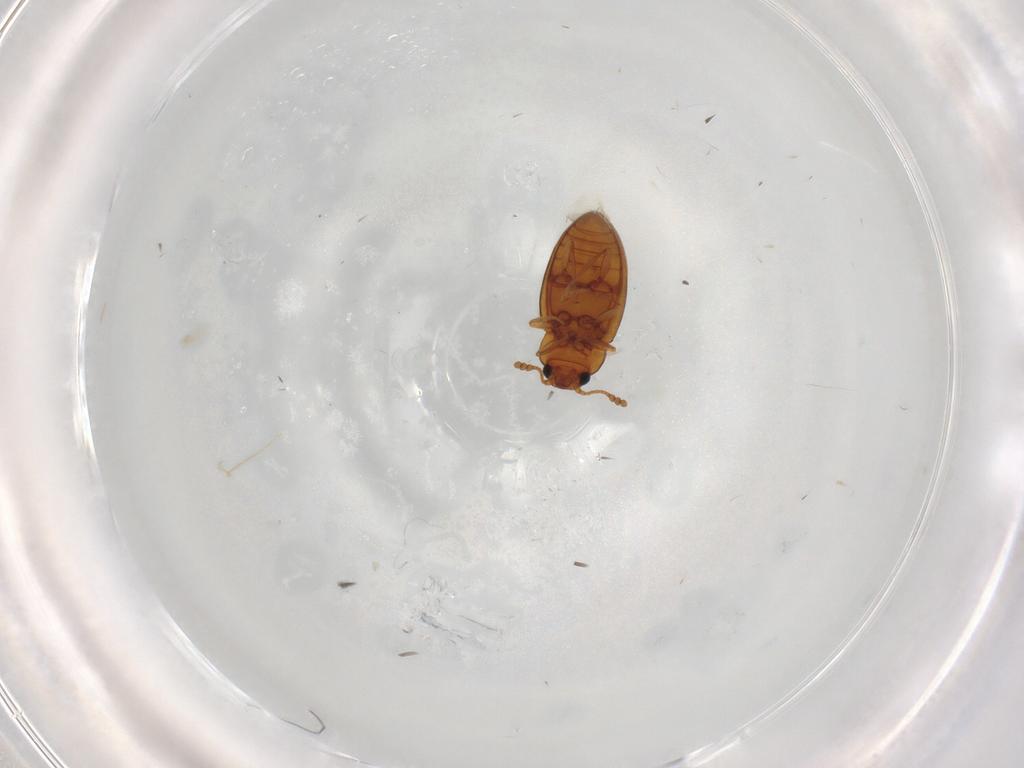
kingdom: Animalia
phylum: Arthropoda
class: Insecta
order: Coleoptera
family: Erotylidae
